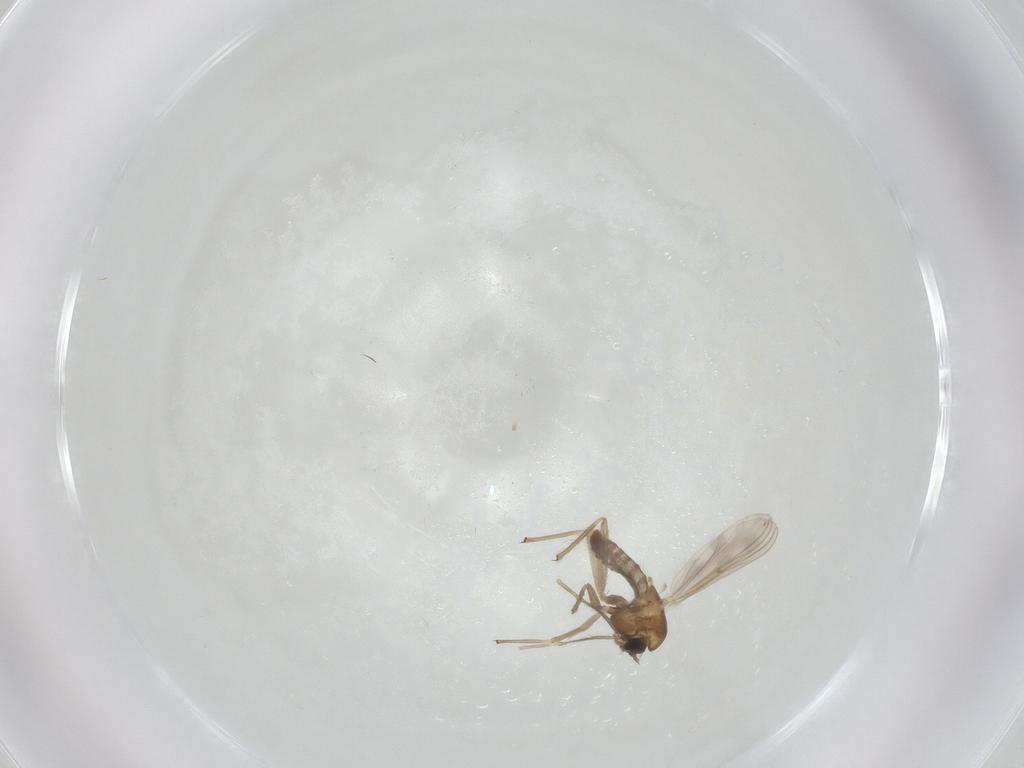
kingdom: Animalia
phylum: Arthropoda
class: Insecta
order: Diptera
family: Chironomidae
